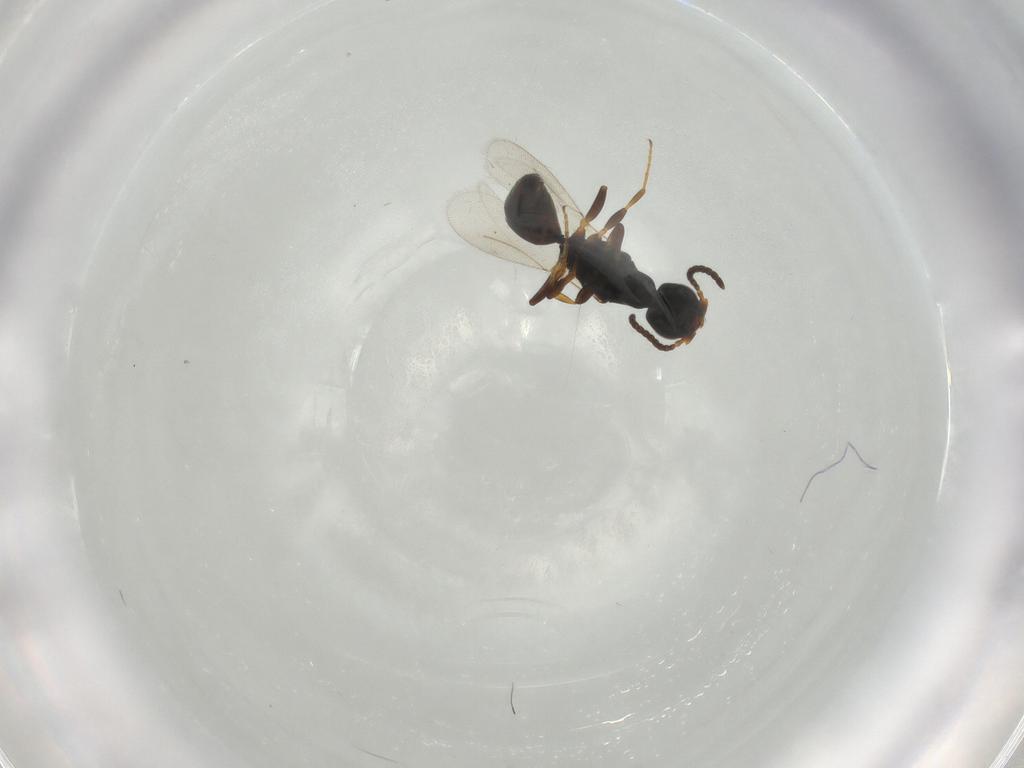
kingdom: Animalia
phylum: Arthropoda
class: Insecta
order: Hymenoptera
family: Bethylidae
